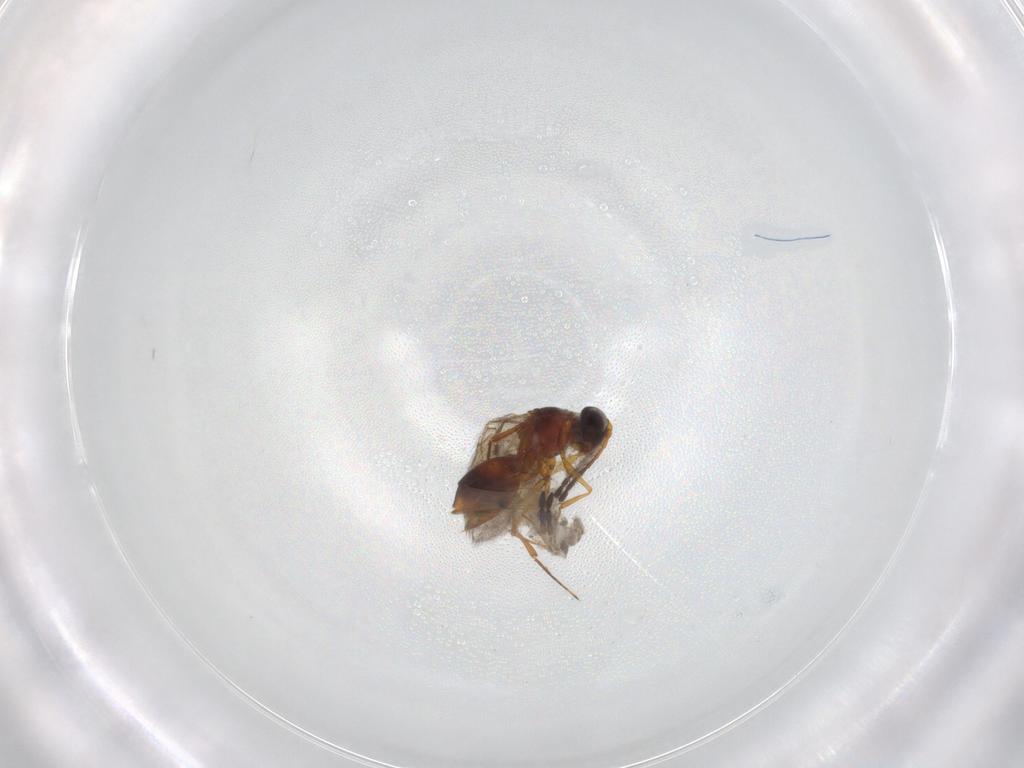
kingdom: Animalia
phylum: Arthropoda
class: Insecta
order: Hymenoptera
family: Figitidae
